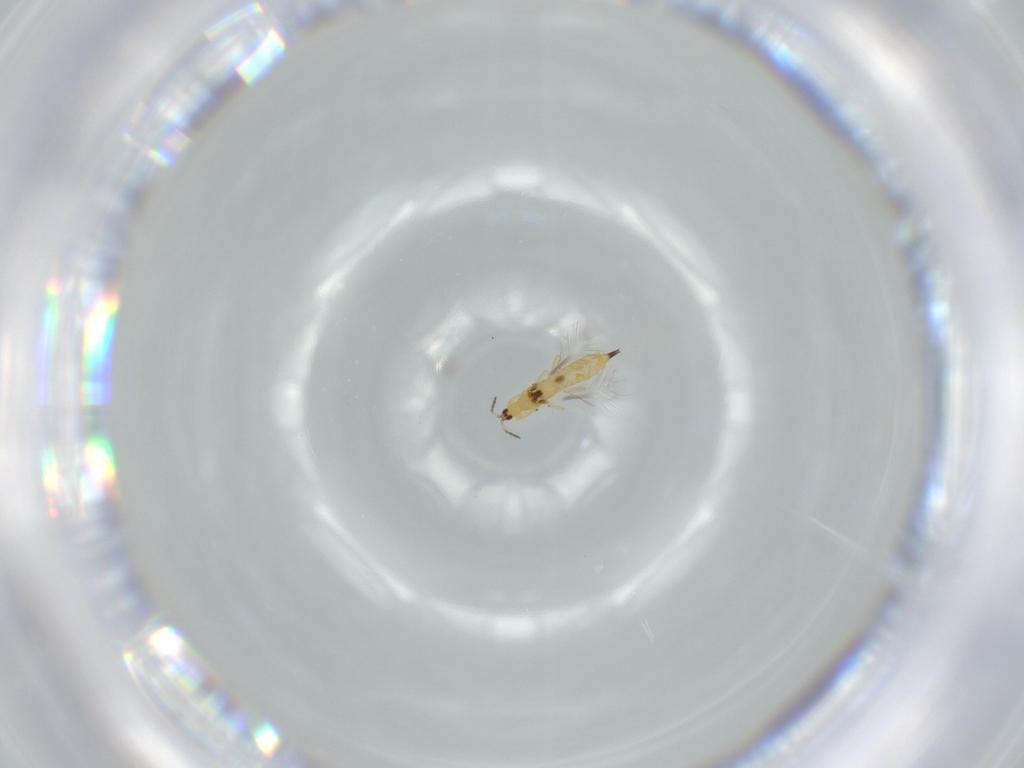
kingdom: Animalia
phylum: Arthropoda
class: Insecta
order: Thysanoptera
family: Phlaeothripidae
